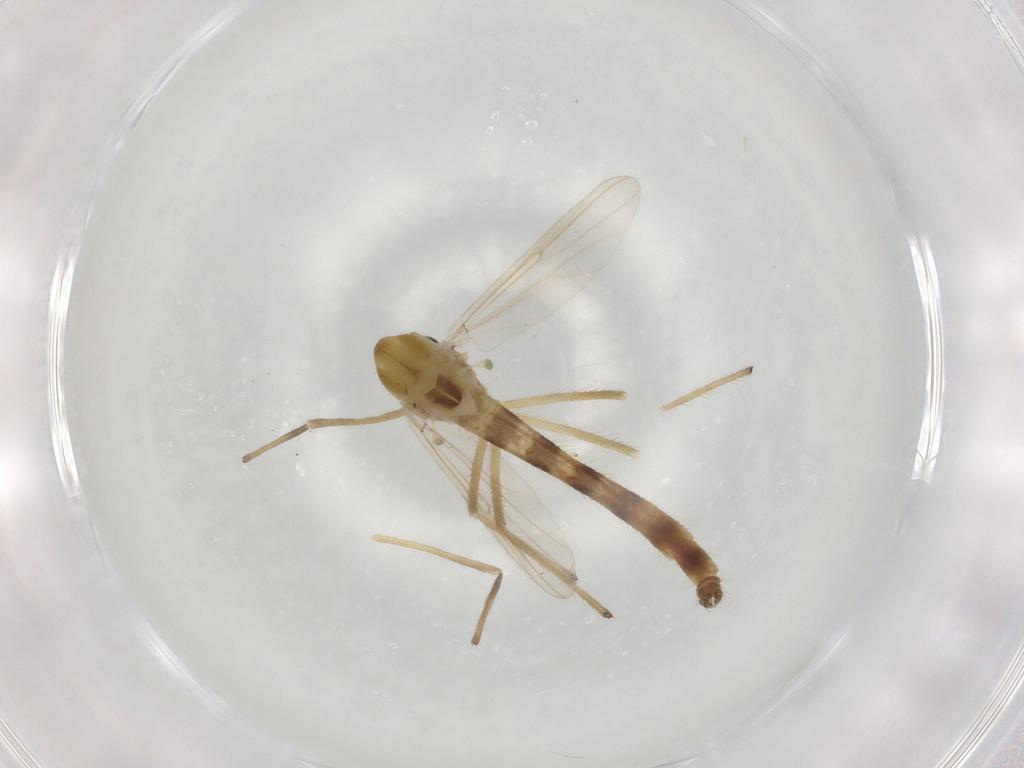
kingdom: Animalia
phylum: Arthropoda
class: Insecta
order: Diptera
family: Chironomidae
